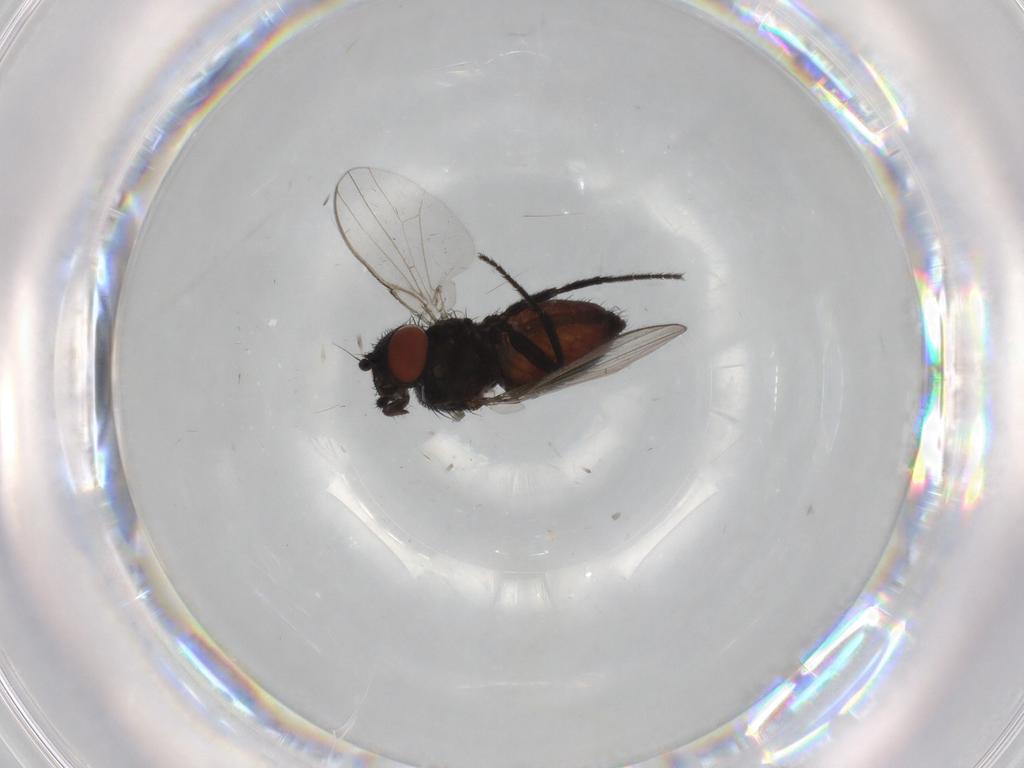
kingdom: Animalia
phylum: Arthropoda
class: Insecta
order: Diptera
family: Milichiidae
